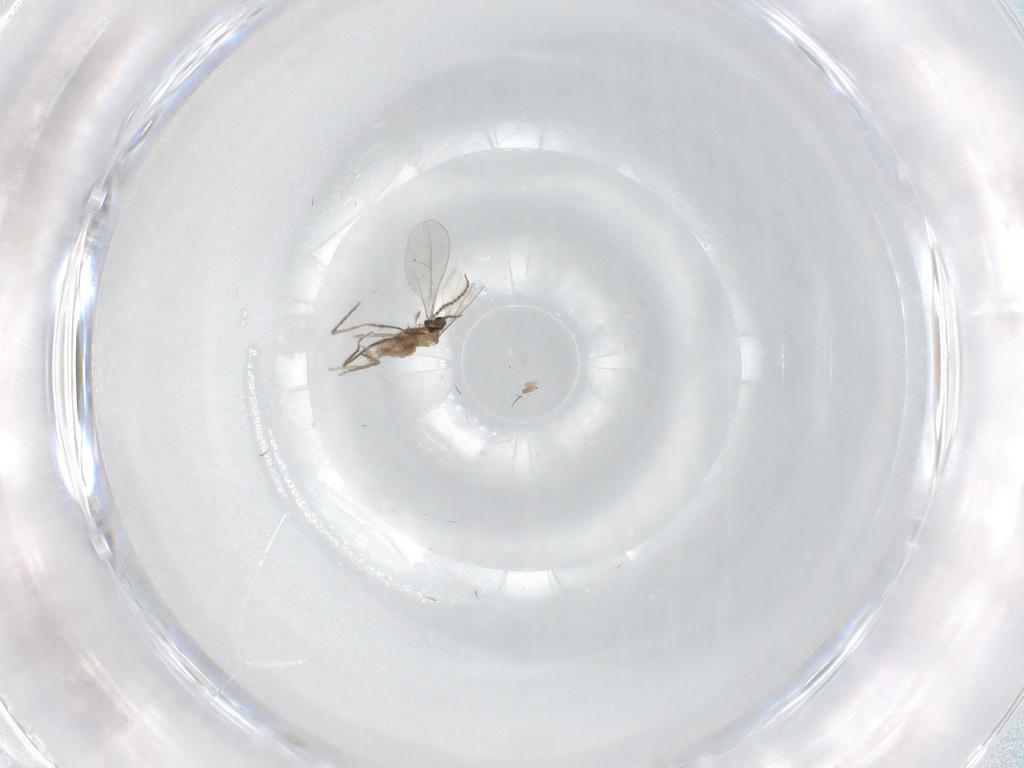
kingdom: Animalia
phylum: Arthropoda
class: Insecta
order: Diptera
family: Cecidomyiidae
